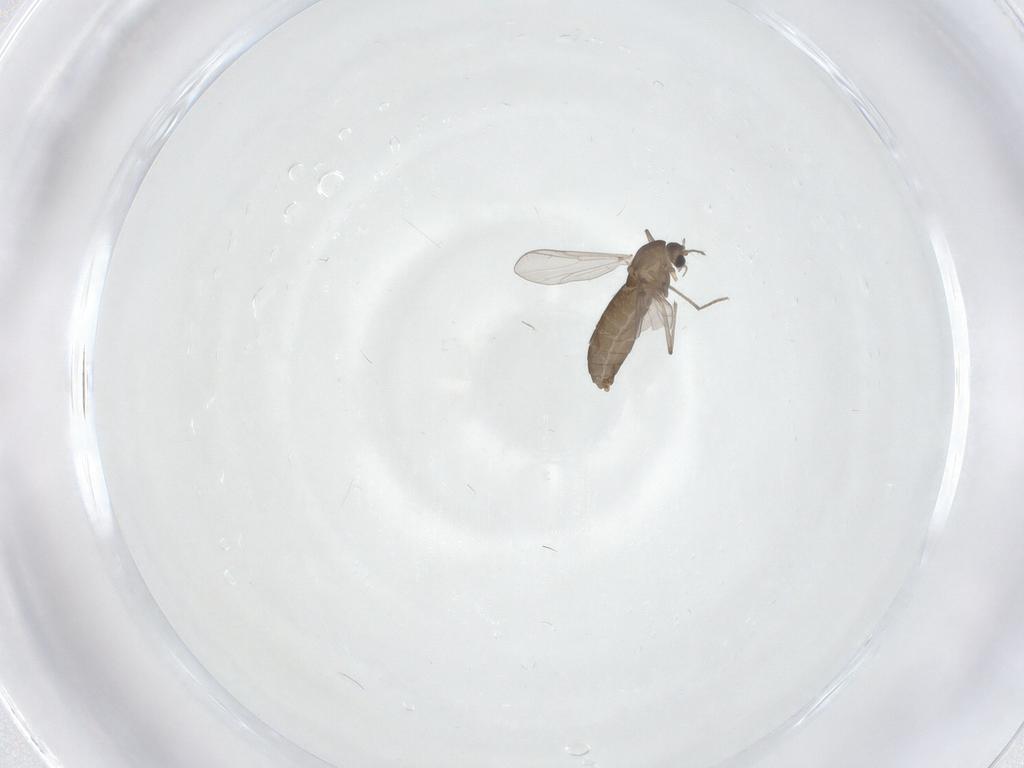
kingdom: Animalia
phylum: Arthropoda
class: Insecta
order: Diptera
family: Chironomidae
